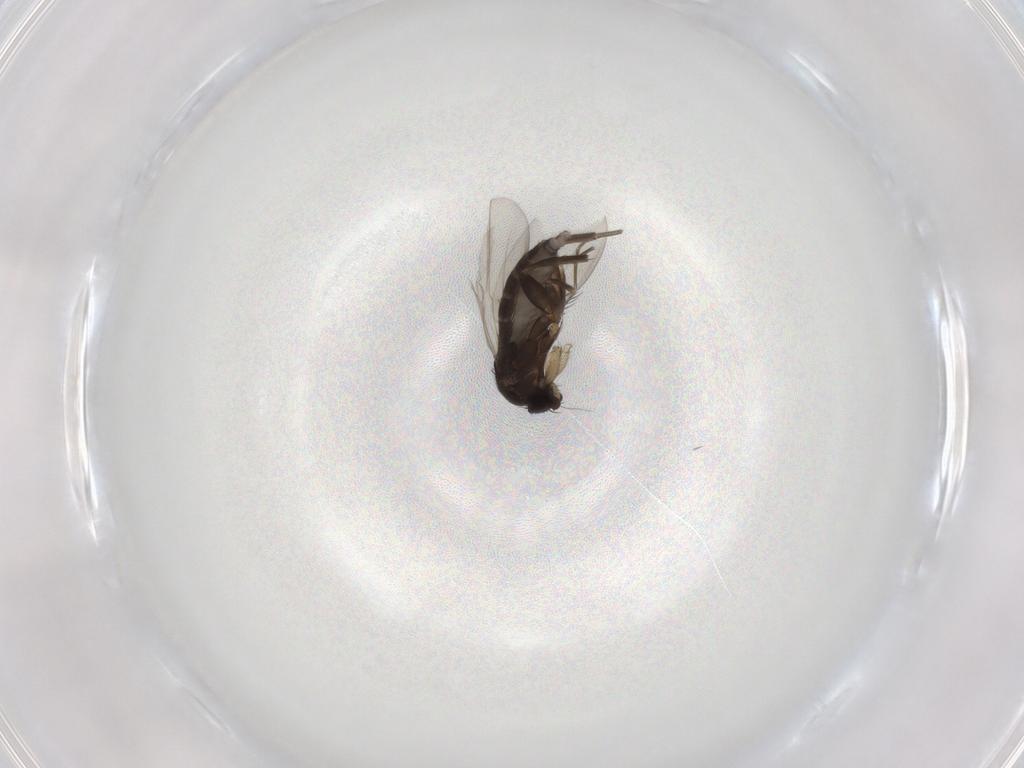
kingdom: Animalia
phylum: Arthropoda
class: Insecta
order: Diptera
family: Phoridae
